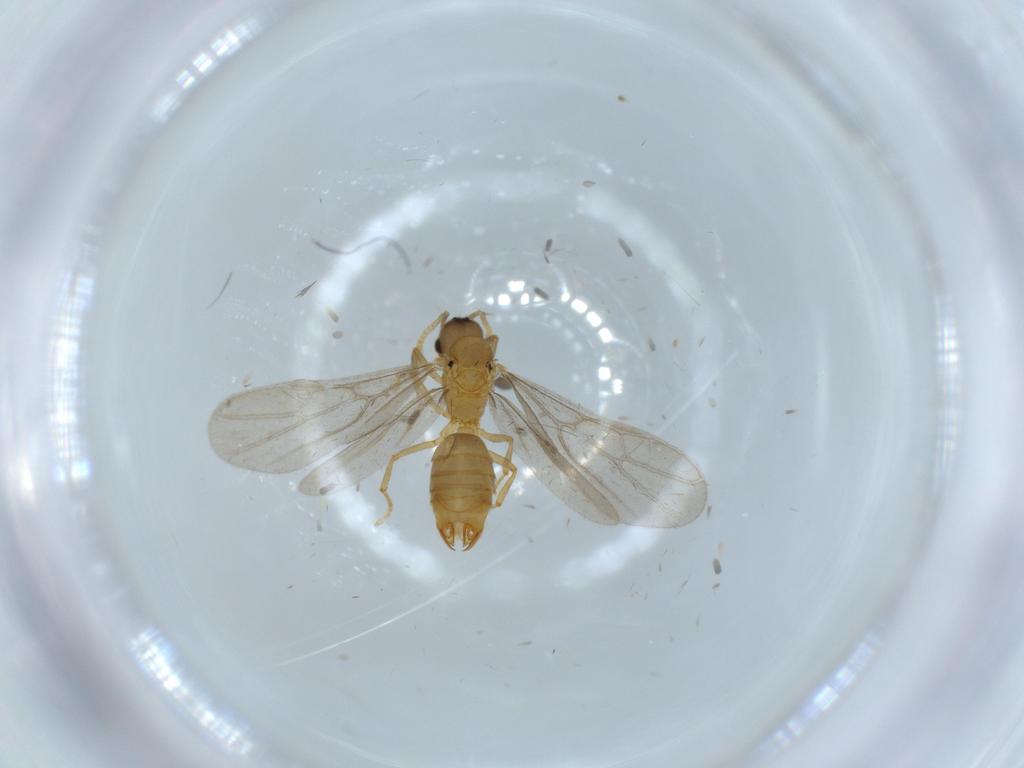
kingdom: Animalia
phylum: Arthropoda
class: Insecta
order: Hymenoptera
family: Formicidae
